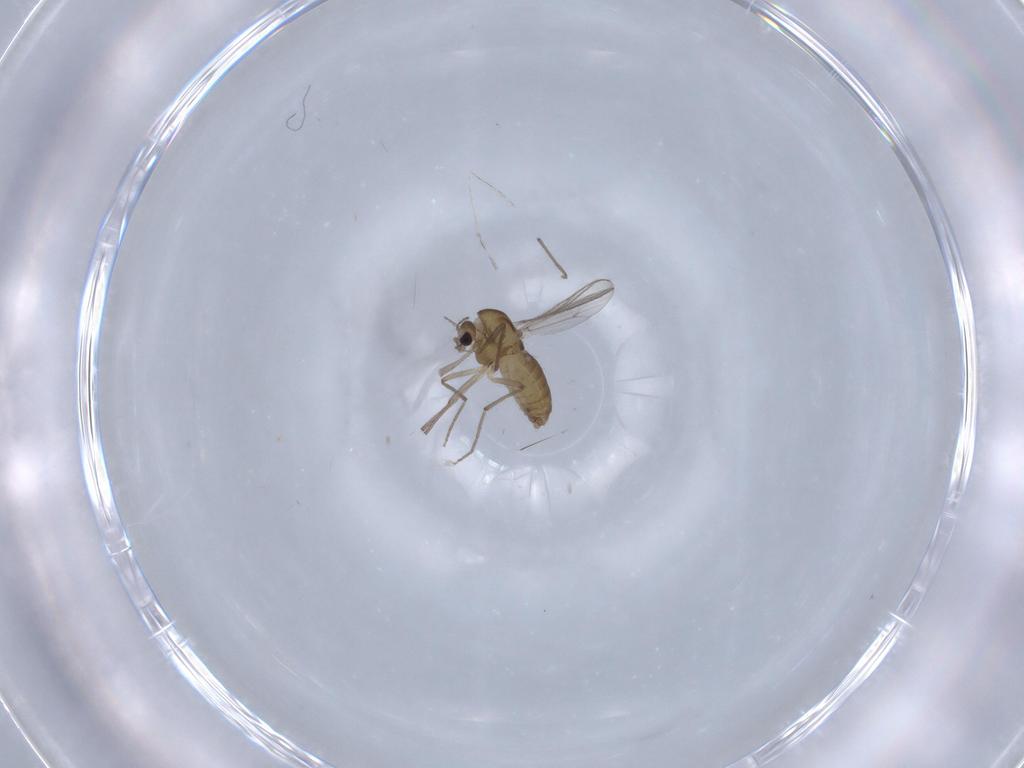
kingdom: Animalia
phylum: Arthropoda
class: Insecta
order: Diptera
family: Chironomidae
